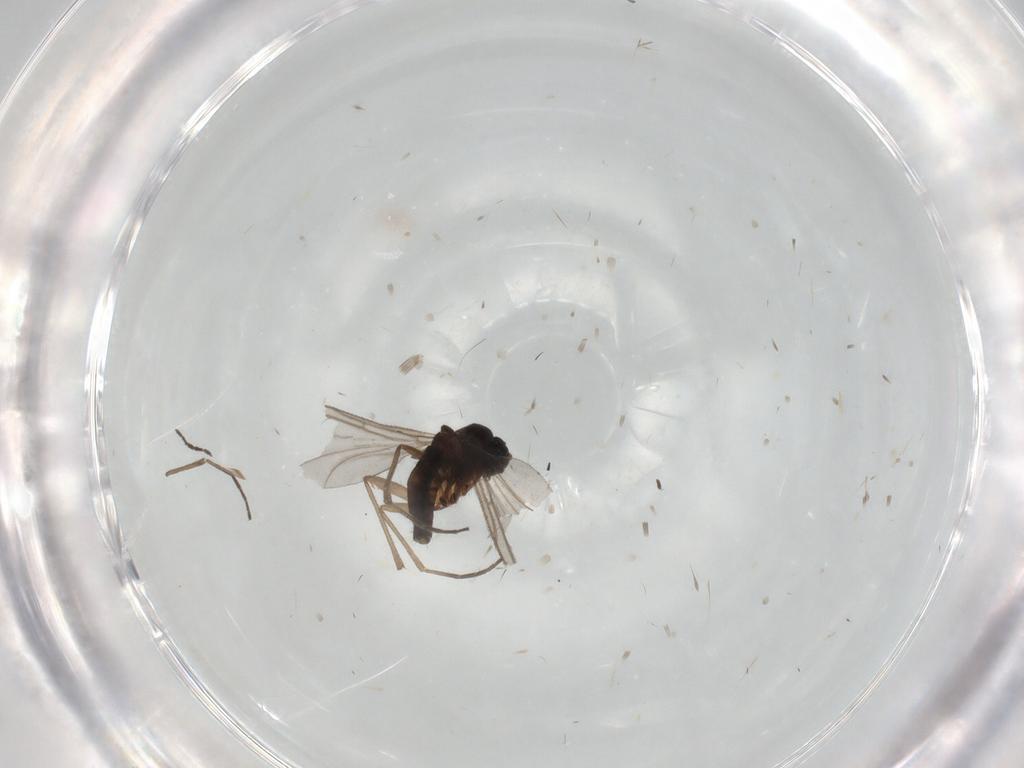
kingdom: Animalia
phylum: Arthropoda
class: Insecta
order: Diptera
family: Sciaridae
